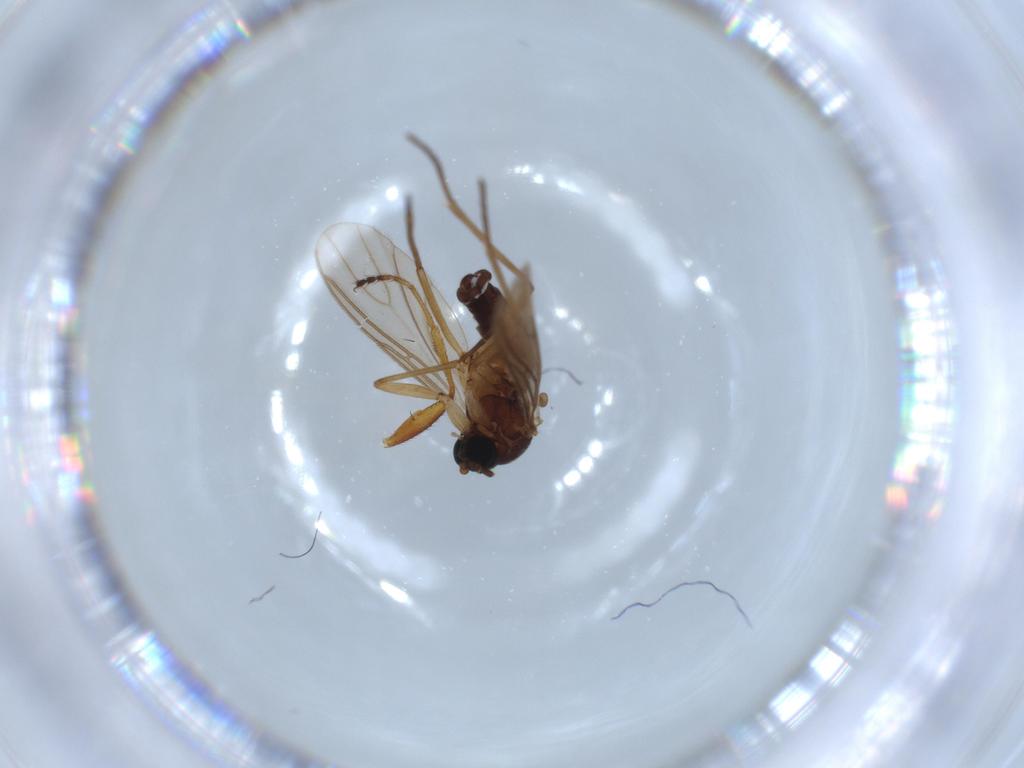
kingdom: Animalia
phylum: Arthropoda
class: Insecta
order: Diptera
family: Sciaridae
